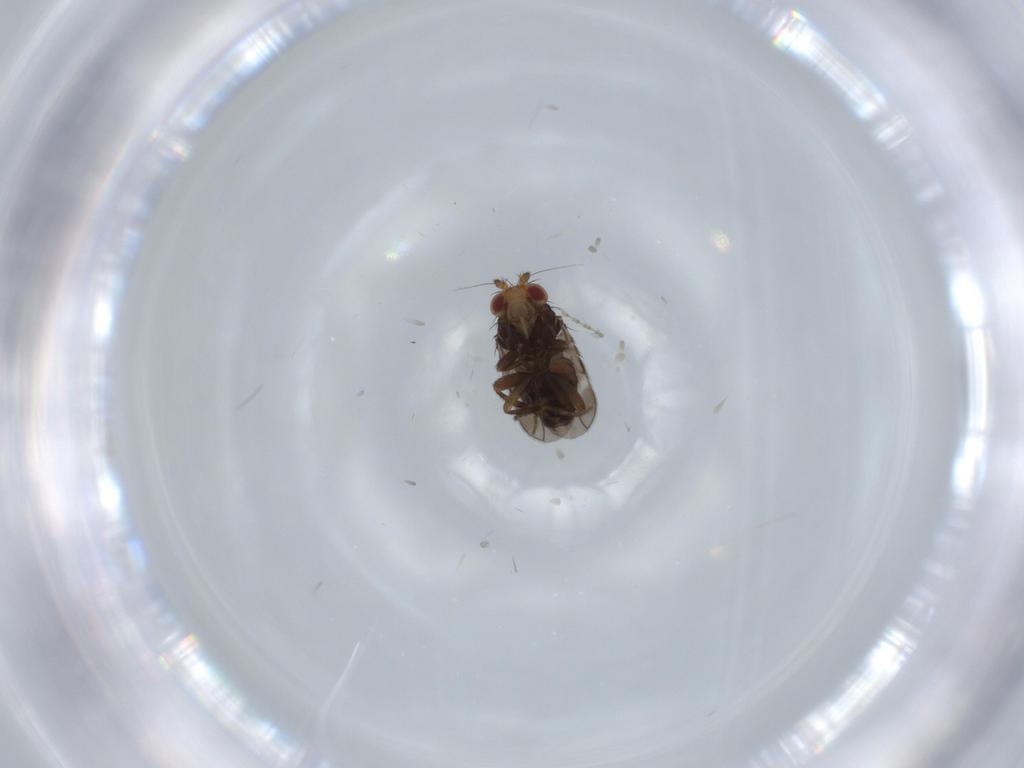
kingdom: Animalia
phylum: Arthropoda
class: Insecta
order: Diptera
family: Cecidomyiidae
